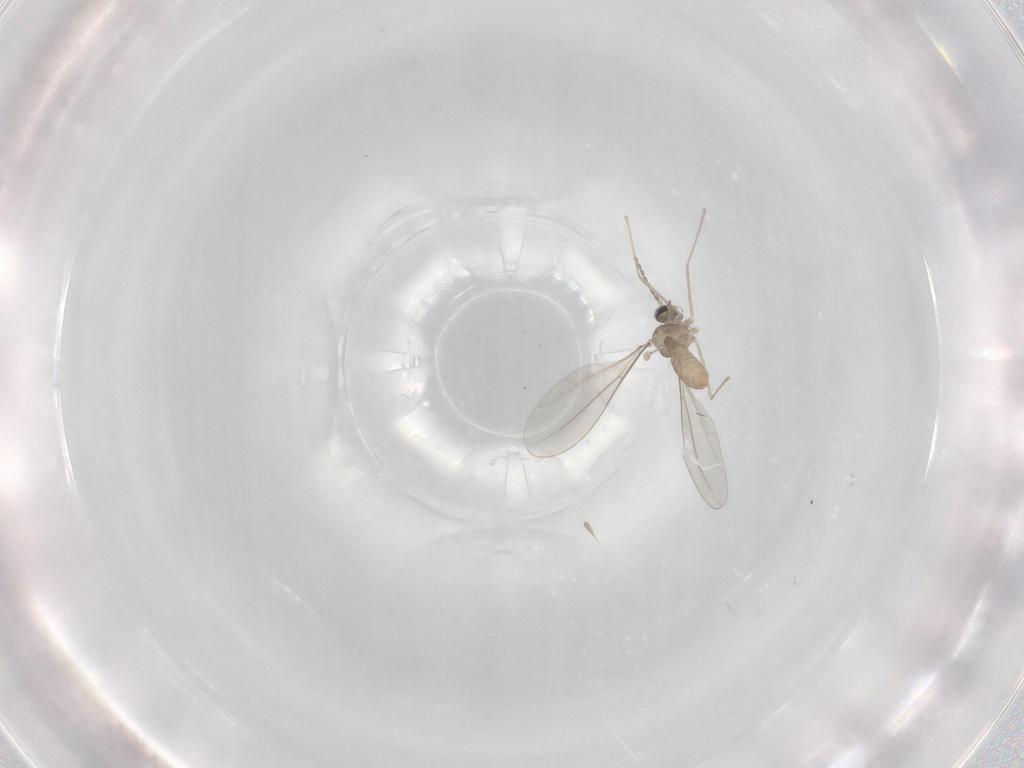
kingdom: Animalia
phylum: Arthropoda
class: Insecta
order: Diptera
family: Cecidomyiidae
